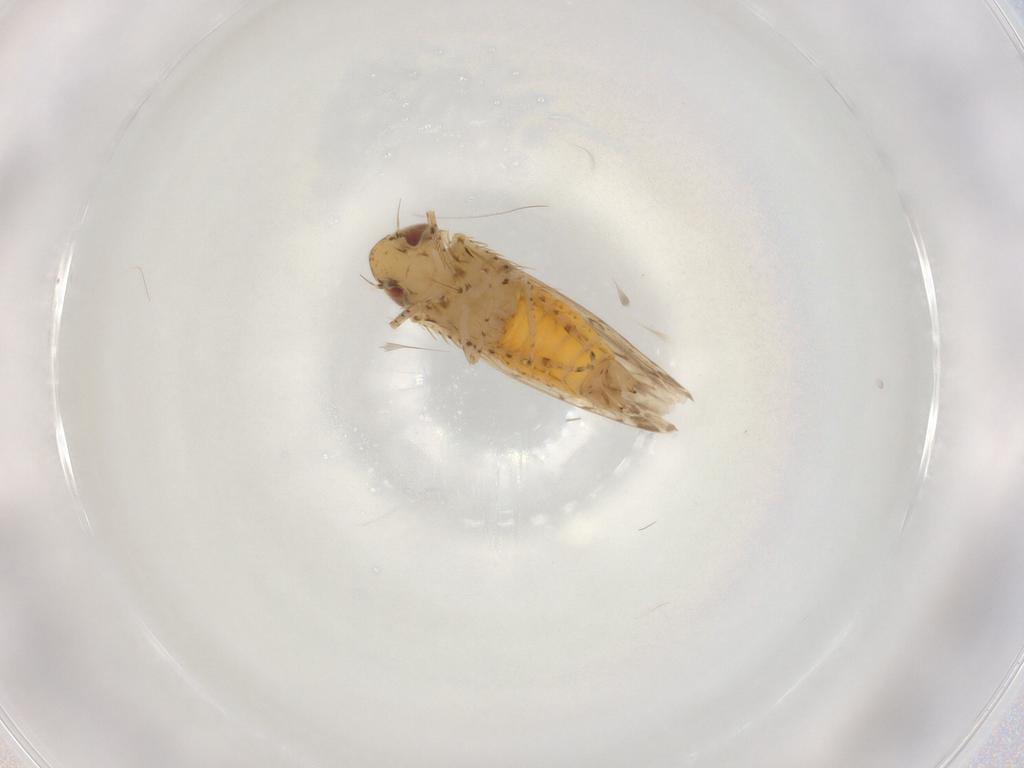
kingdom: Animalia
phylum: Arthropoda
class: Insecta
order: Hemiptera
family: Cicadellidae
